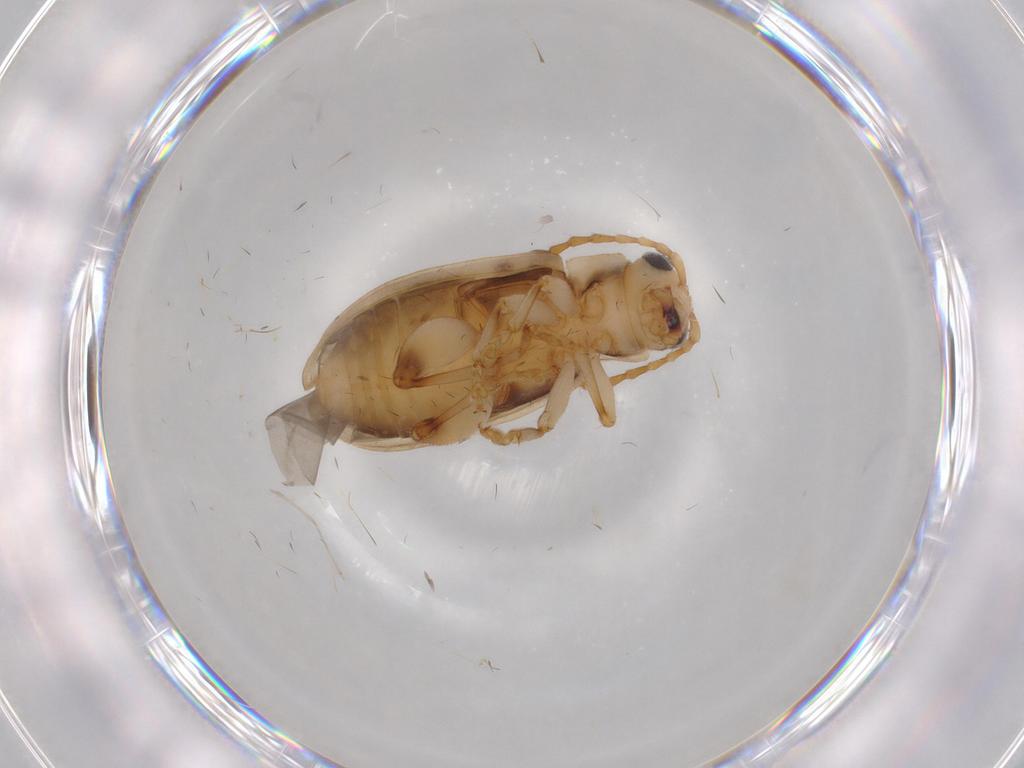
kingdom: Animalia
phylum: Arthropoda
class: Insecta
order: Coleoptera
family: Chrysomelidae
